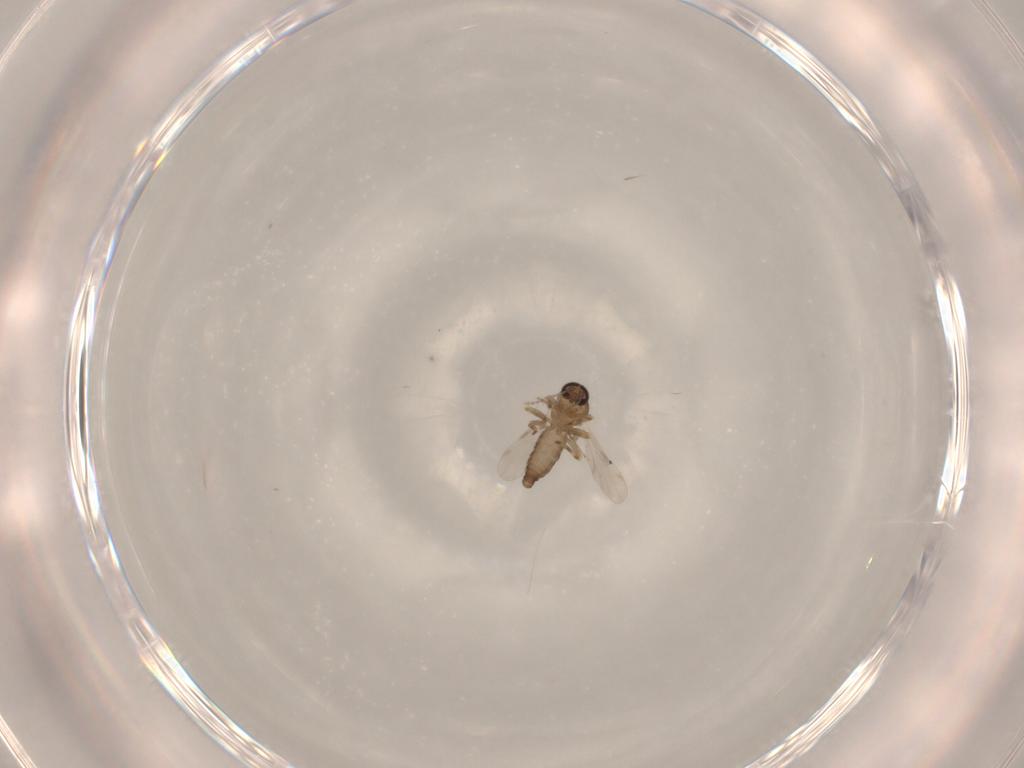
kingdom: Animalia
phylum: Arthropoda
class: Insecta
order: Diptera
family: Ceratopogonidae
